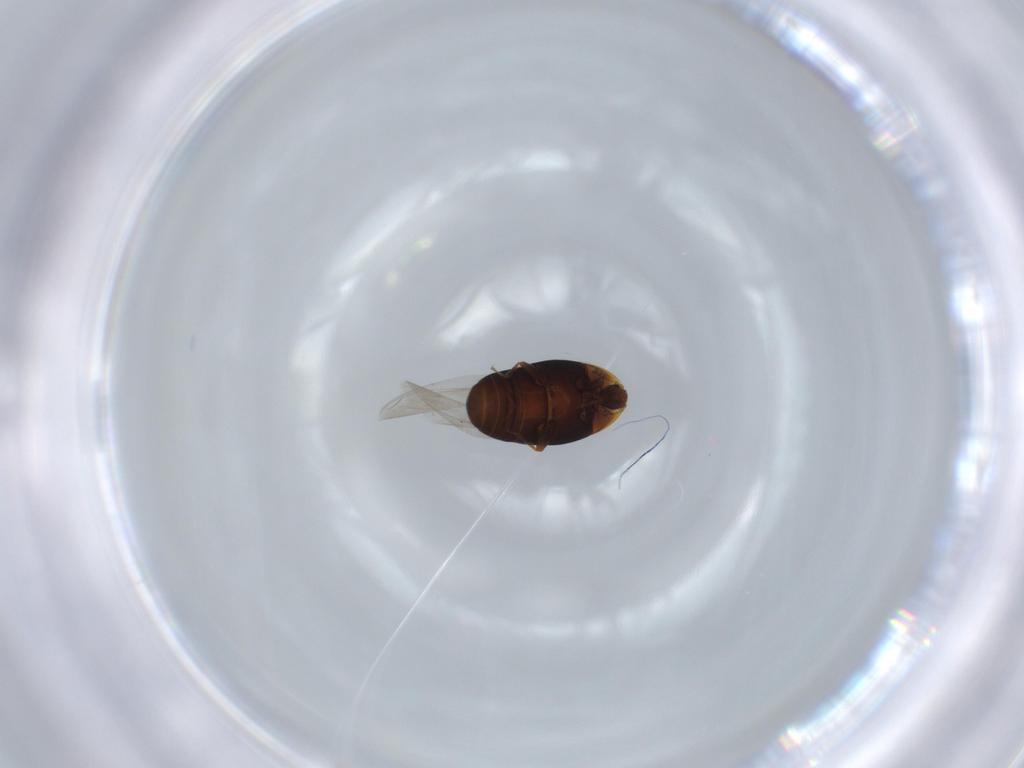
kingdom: Animalia
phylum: Arthropoda
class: Insecta
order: Coleoptera
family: Corylophidae
